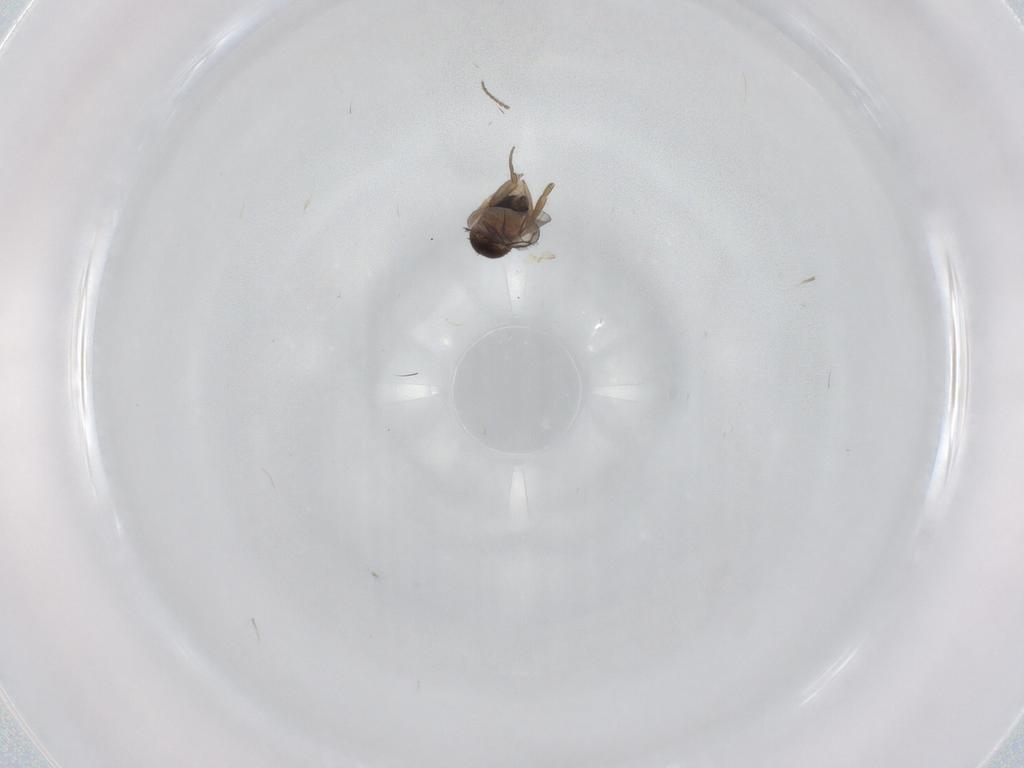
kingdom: Animalia
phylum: Arthropoda
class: Insecta
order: Diptera
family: Cecidomyiidae
